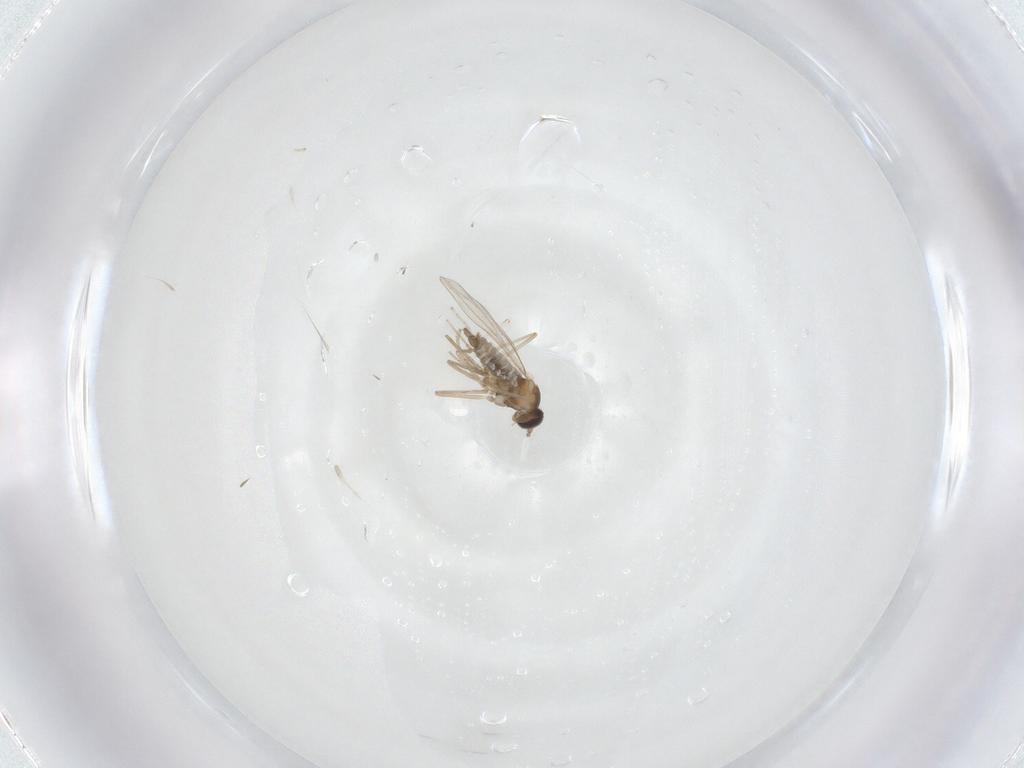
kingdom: Animalia
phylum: Arthropoda
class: Insecta
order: Diptera
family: Cecidomyiidae
